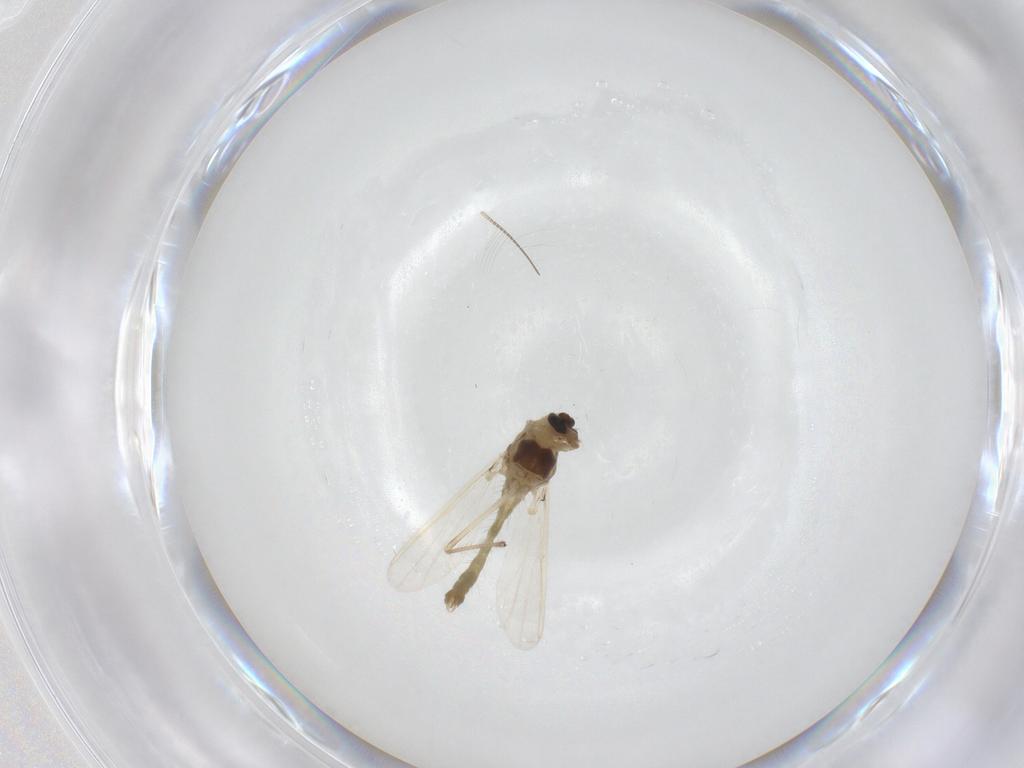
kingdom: Animalia
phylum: Arthropoda
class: Insecta
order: Diptera
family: Chironomidae
